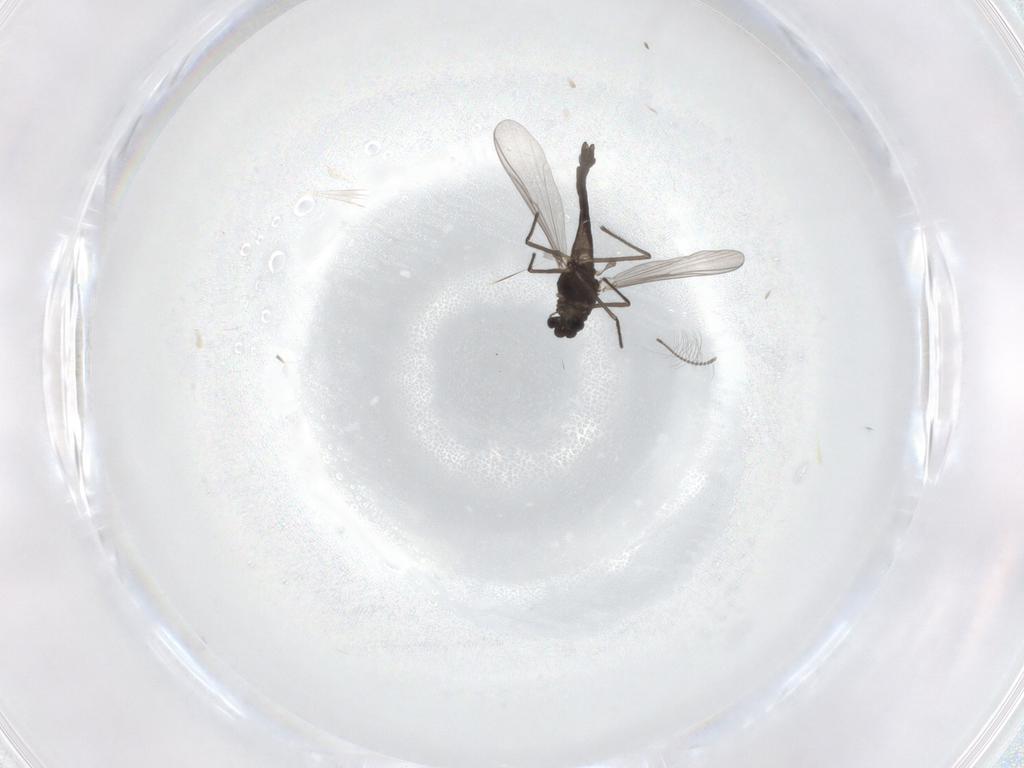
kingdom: Animalia
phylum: Arthropoda
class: Insecta
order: Diptera
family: Chironomidae
